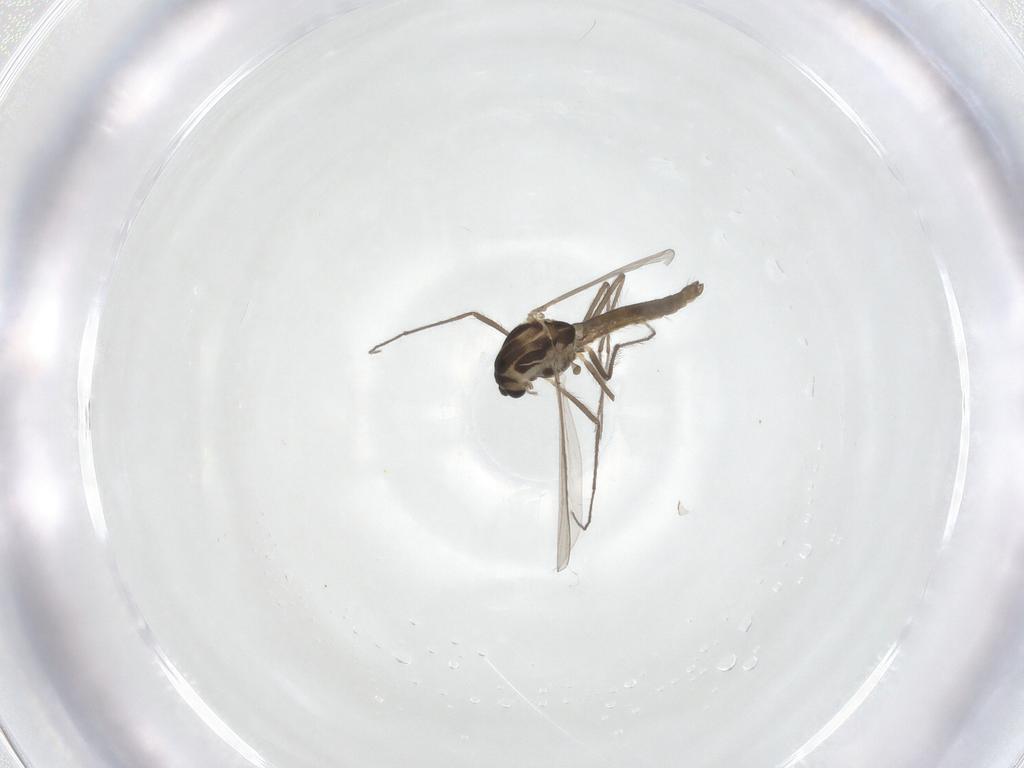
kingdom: Animalia
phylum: Arthropoda
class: Insecta
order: Diptera
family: Chironomidae
